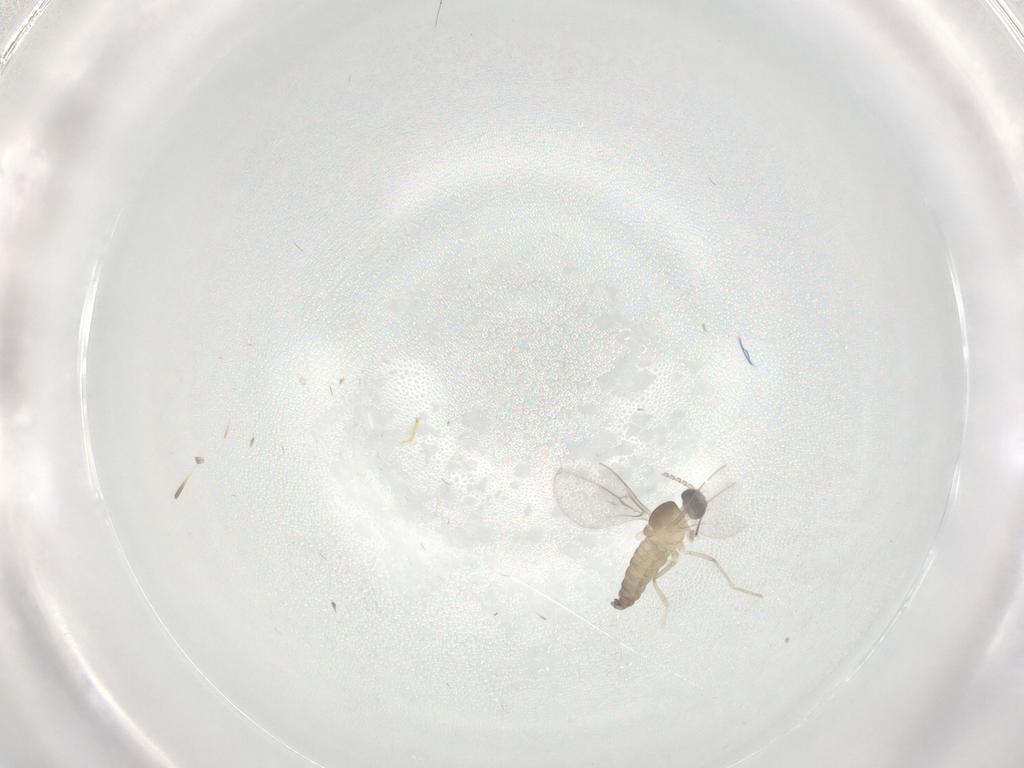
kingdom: Animalia
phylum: Arthropoda
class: Insecta
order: Diptera
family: Cecidomyiidae
